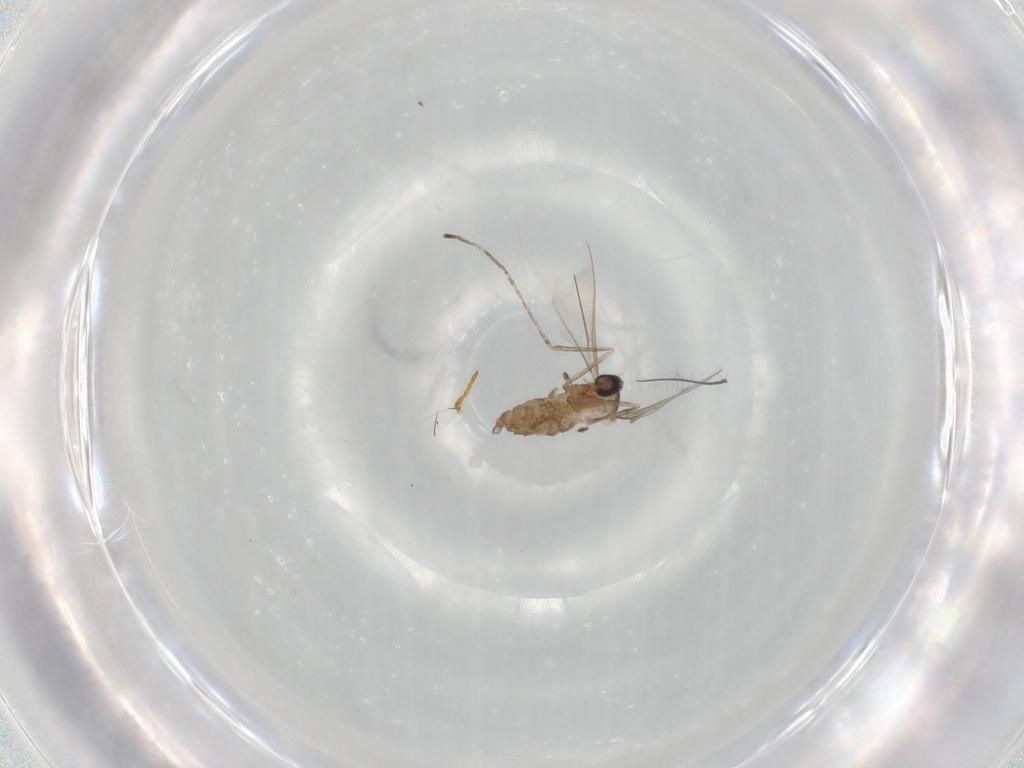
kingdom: Animalia
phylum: Arthropoda
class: Insecta
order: Diptera
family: Cecidomyiidae
